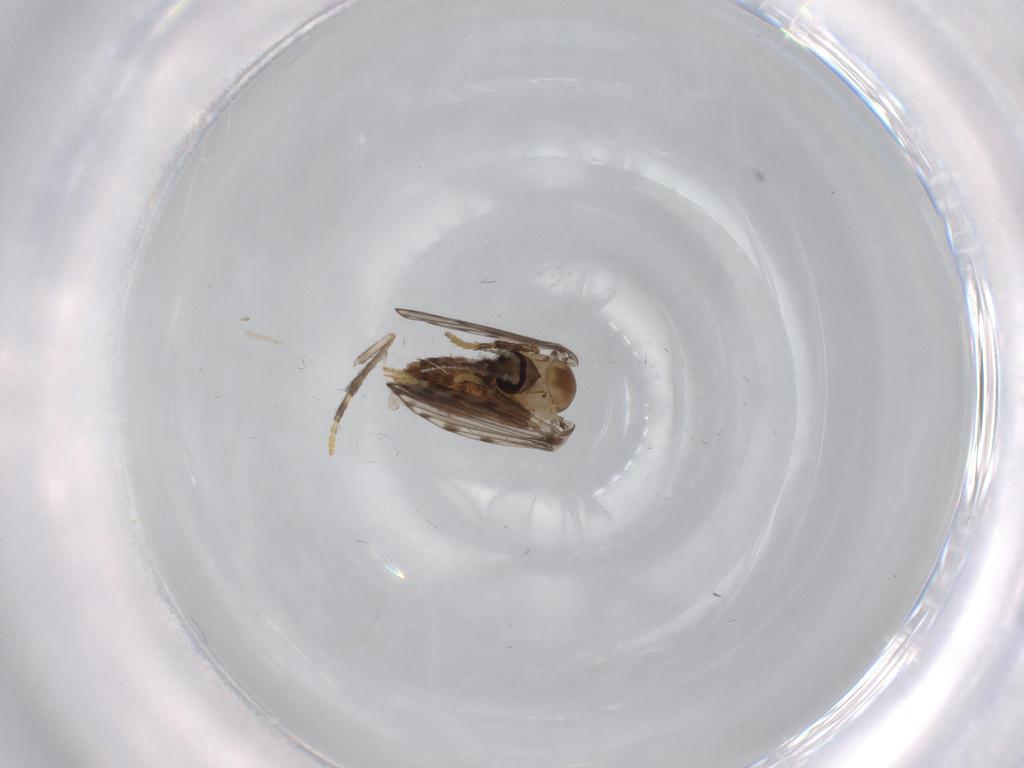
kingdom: Animalia
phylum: Arthropoda
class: Insecta
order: Diptera
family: Psychodidae
